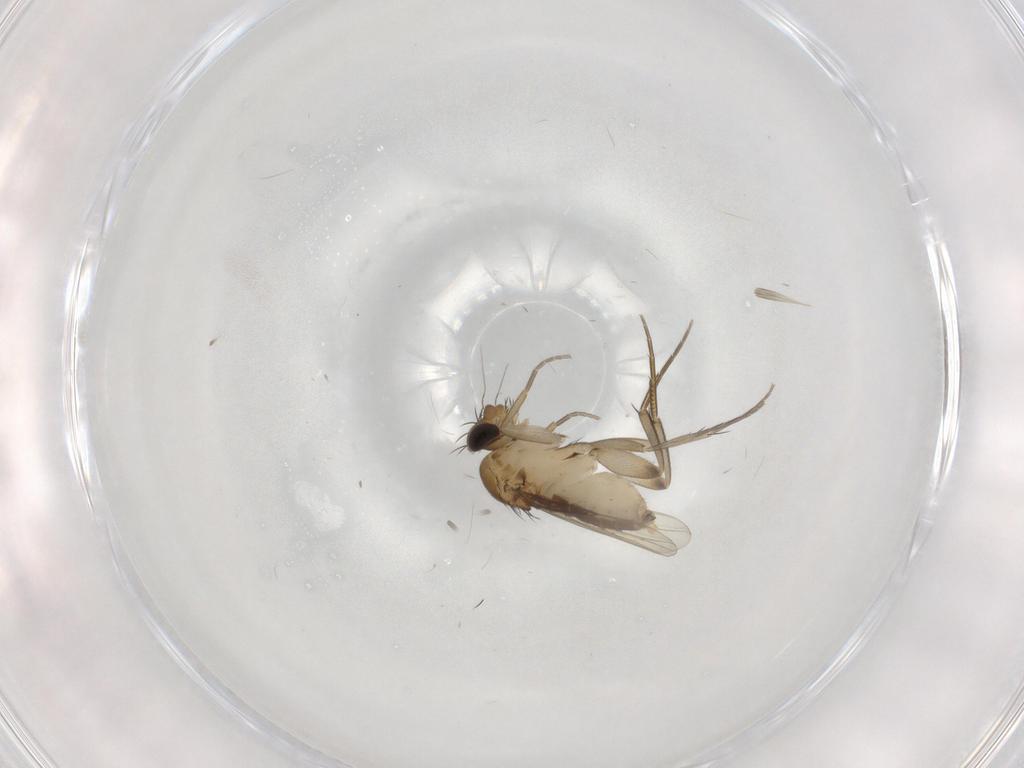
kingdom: Animalia
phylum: Arthropoda
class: Insecta
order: Diptera
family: Phoridae
